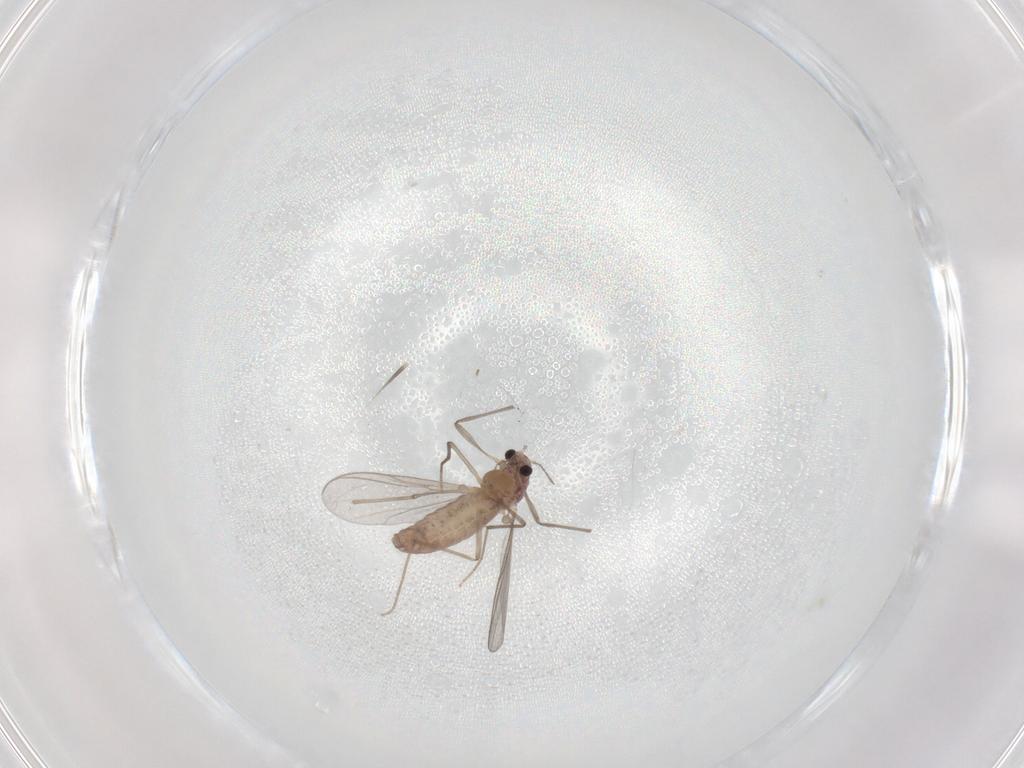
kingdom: Animalia
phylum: Arthropoda
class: Insecta
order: Diptera
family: Chironomidae
